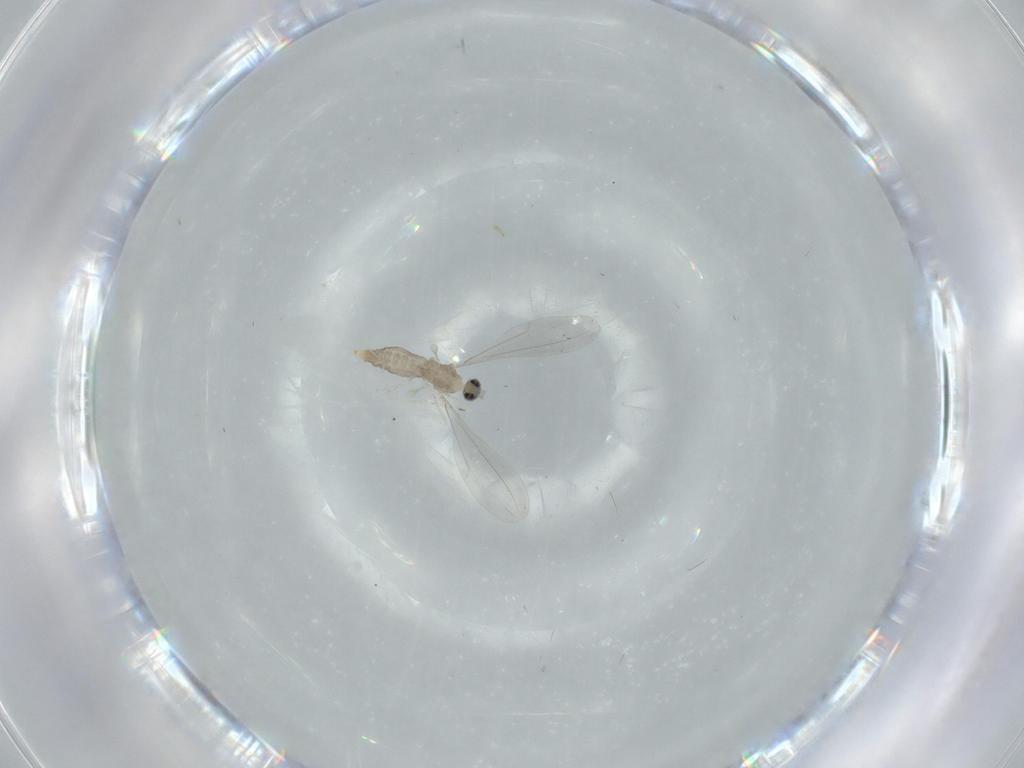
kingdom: Animalia
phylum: Arthropoda
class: Insecta
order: Diptera
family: Cecidomyiidae
